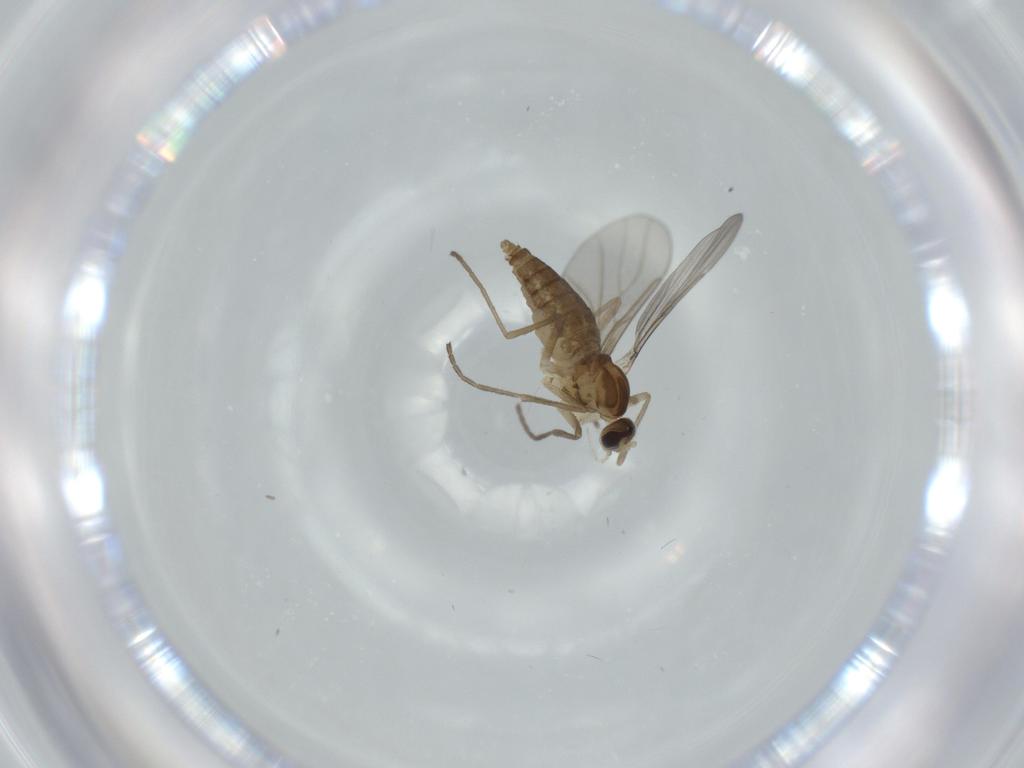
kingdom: Animalia
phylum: Arthropoda
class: Insecta
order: Diptera
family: Cecidomyiidae
